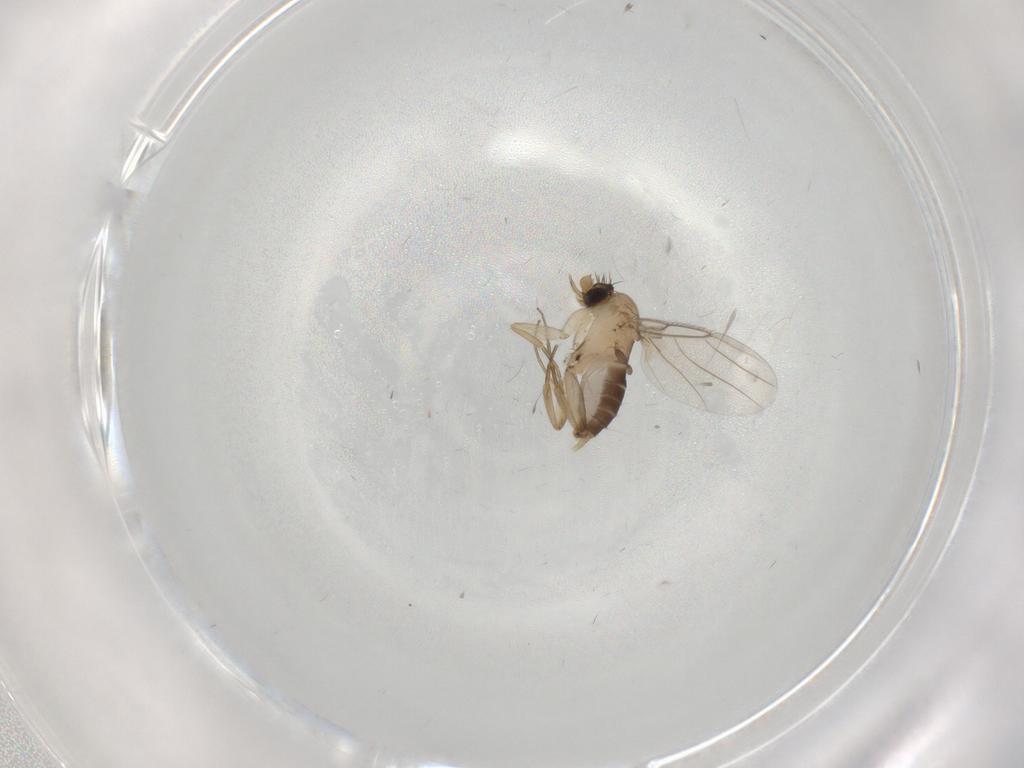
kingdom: Animalia
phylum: Arthropoda
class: Insecta
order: Diptera
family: Phoridae
